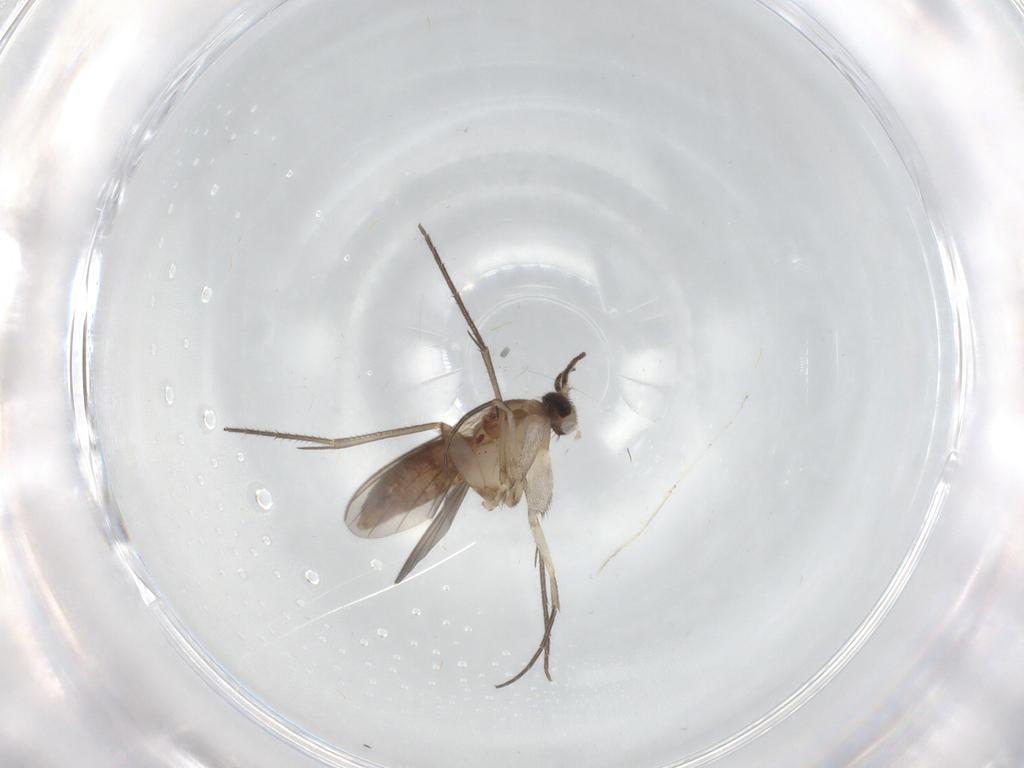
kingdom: Animalia
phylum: Arthropoda
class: Insecta
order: Diptera
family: Mycetophilidae
